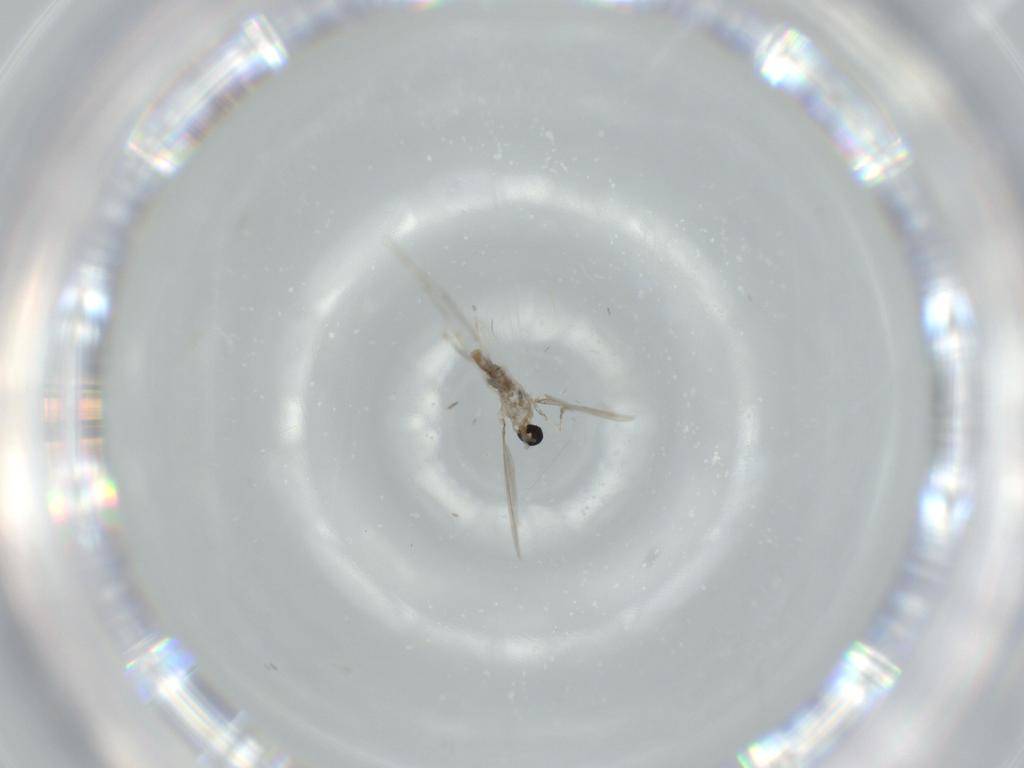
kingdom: Animalia
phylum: Arthropoda
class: Insecta
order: Diptera
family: Cecidomyiidae
